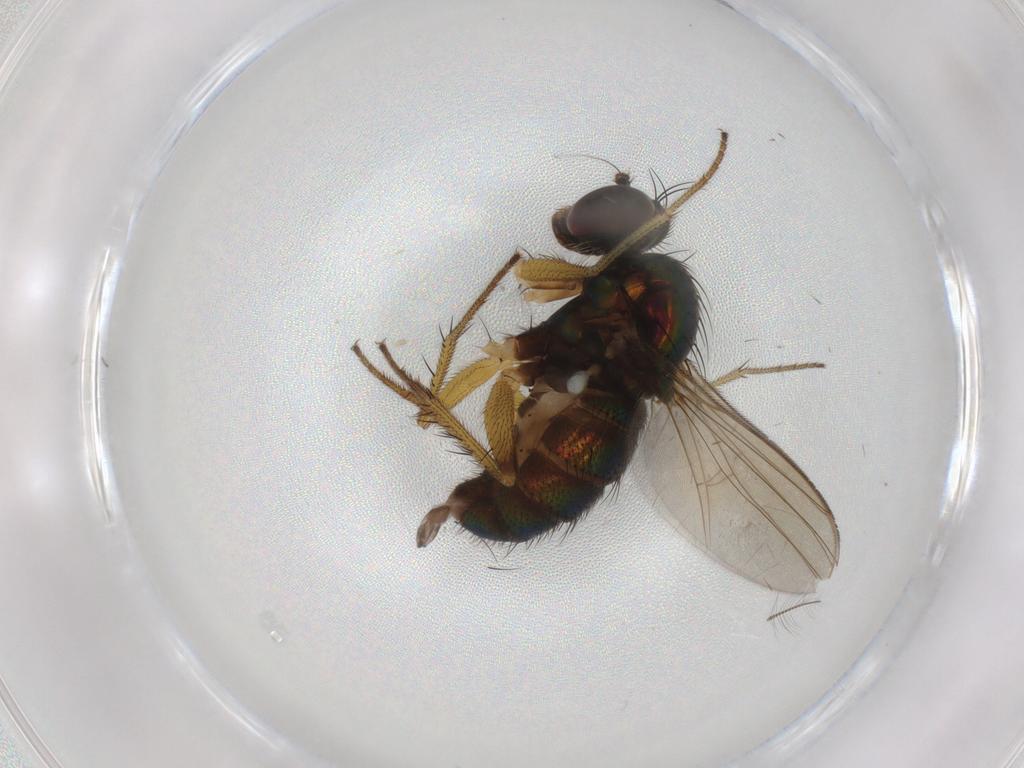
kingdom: Animalia
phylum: Arthropoda
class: Insecta
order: Diptera
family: Dolichopodidae
